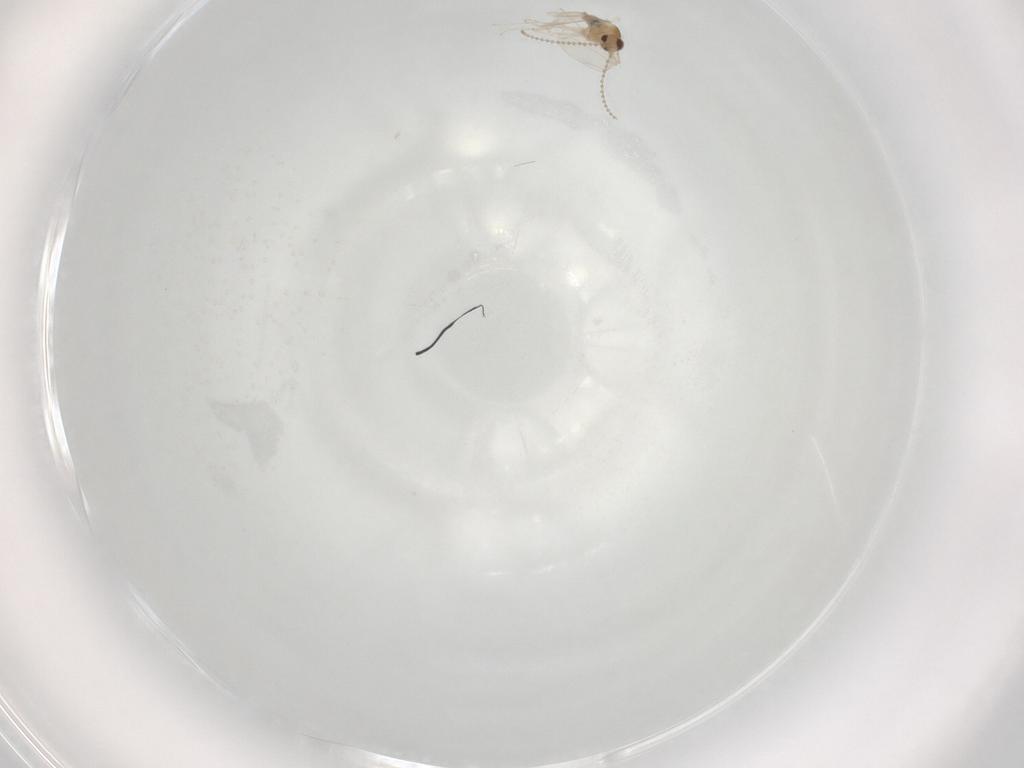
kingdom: Animalia
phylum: Arthropoda
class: Insecta
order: Diptera
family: Cecidomyiidae
